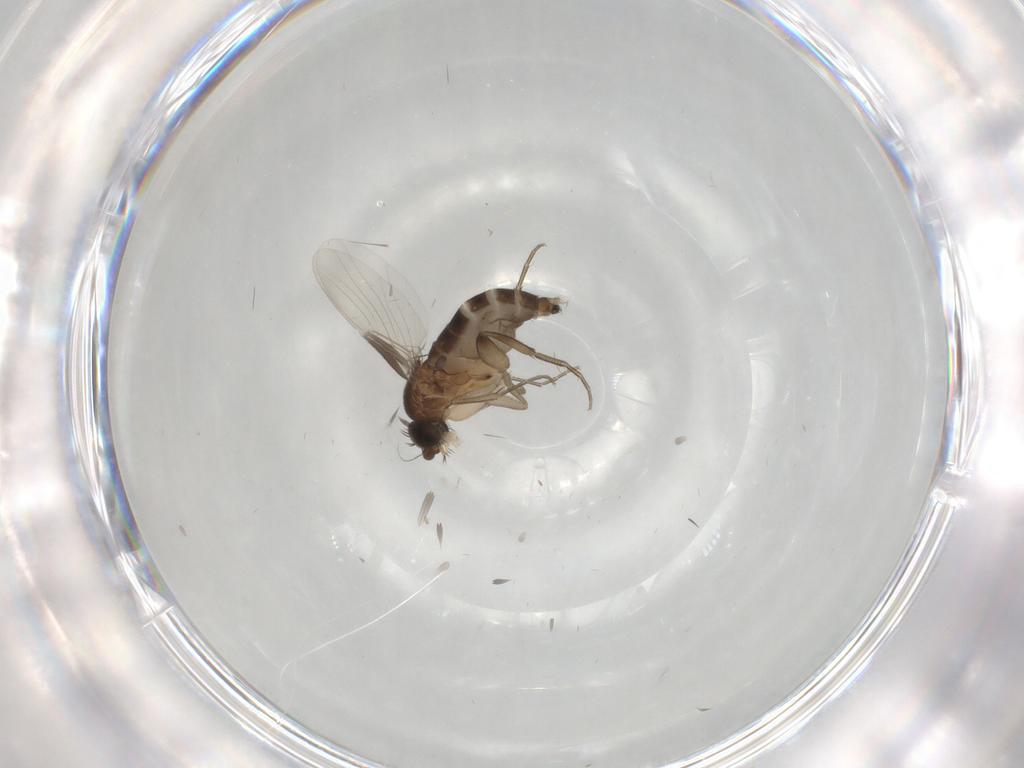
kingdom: Animalia
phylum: Arthropoda
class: Insecta
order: Diptera
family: Phoridae
